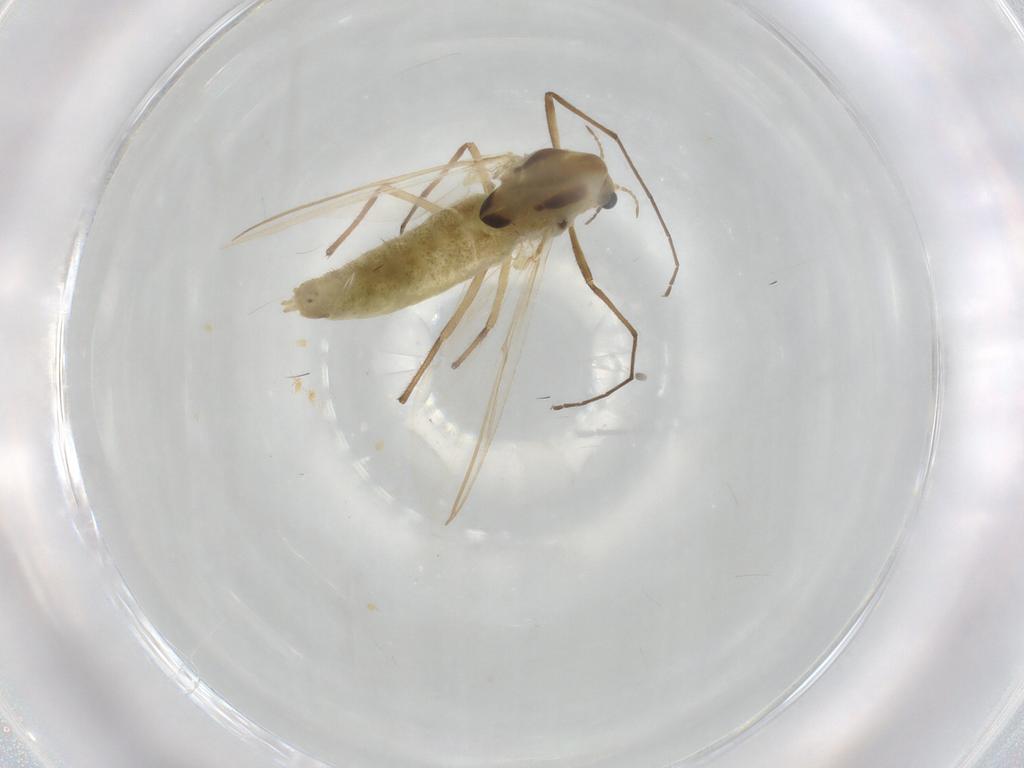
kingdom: Animalia
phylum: Arthropoda
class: Insecta
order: Diptera
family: Chironomidae
